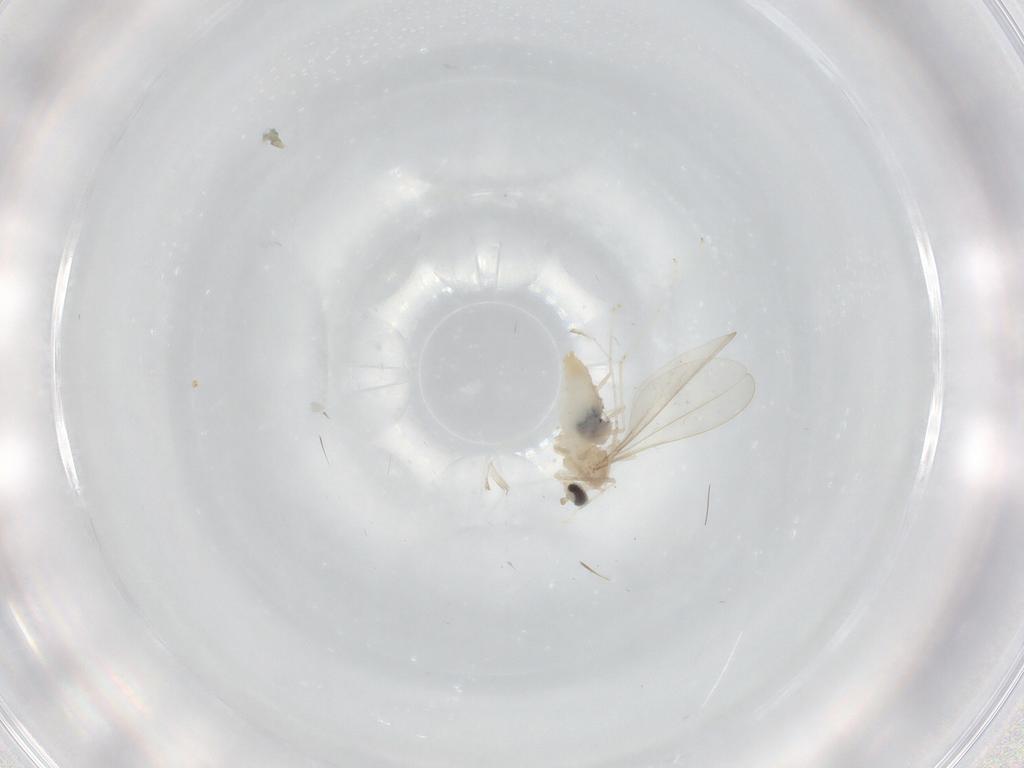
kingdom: Animalia
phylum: Arthropoda
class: Insecta
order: Diptera
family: Cecidomyiidae
